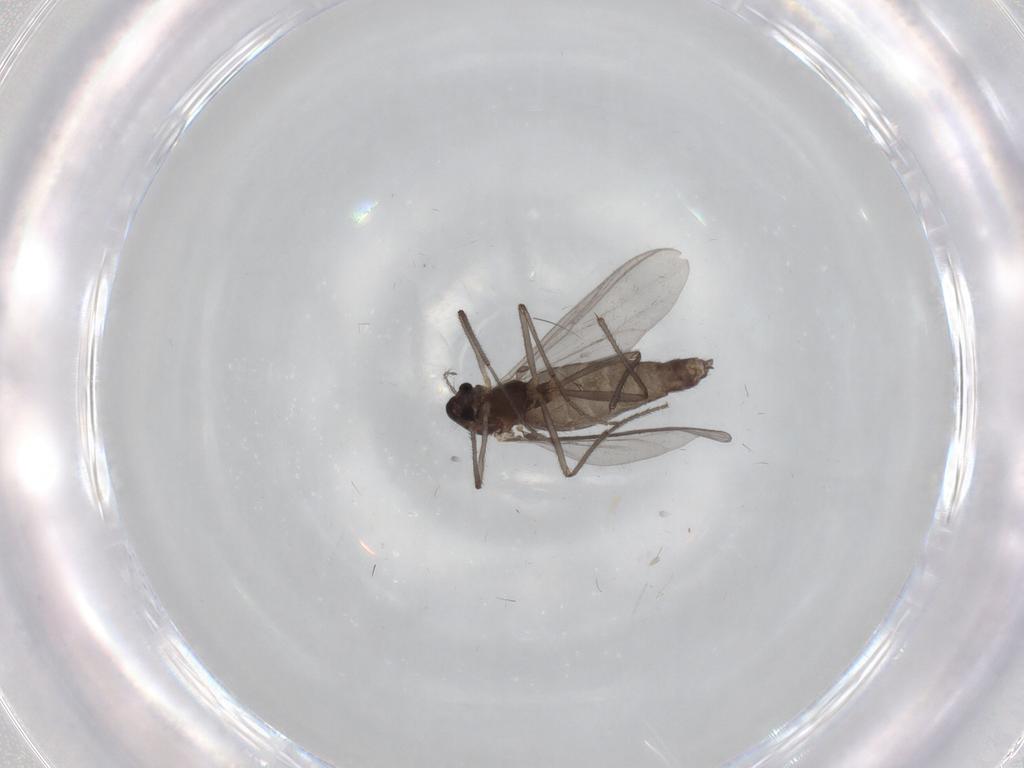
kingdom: Animalia
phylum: Arthropoda
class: Insecta
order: Diptera
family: Chironomidae
